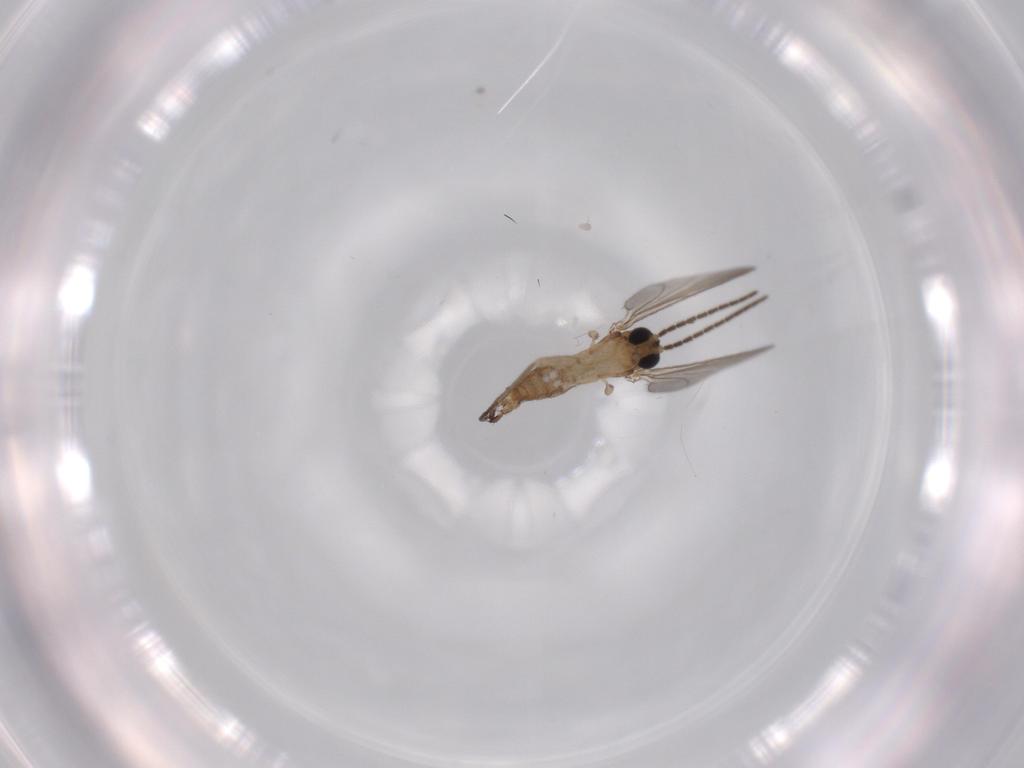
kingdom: Animalia
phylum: Arthropoda
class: Insecta
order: Diptera
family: Sciaridae
